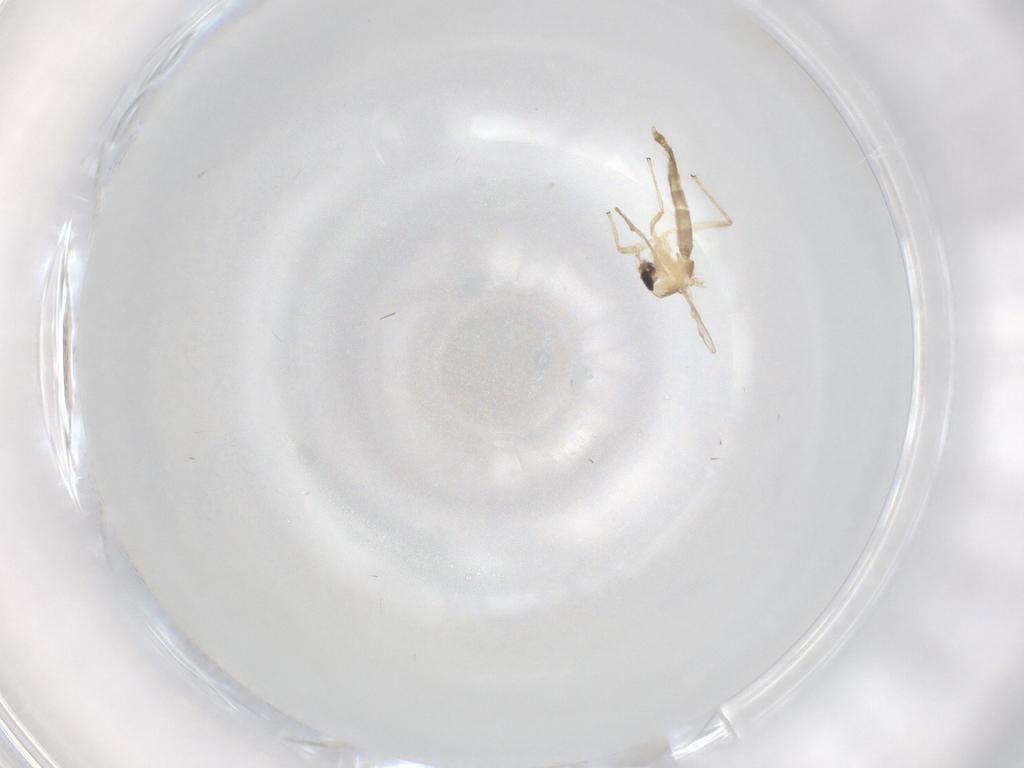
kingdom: Animalia
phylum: Arthropoda
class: Insecta
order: Diptera
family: Chironomidae
